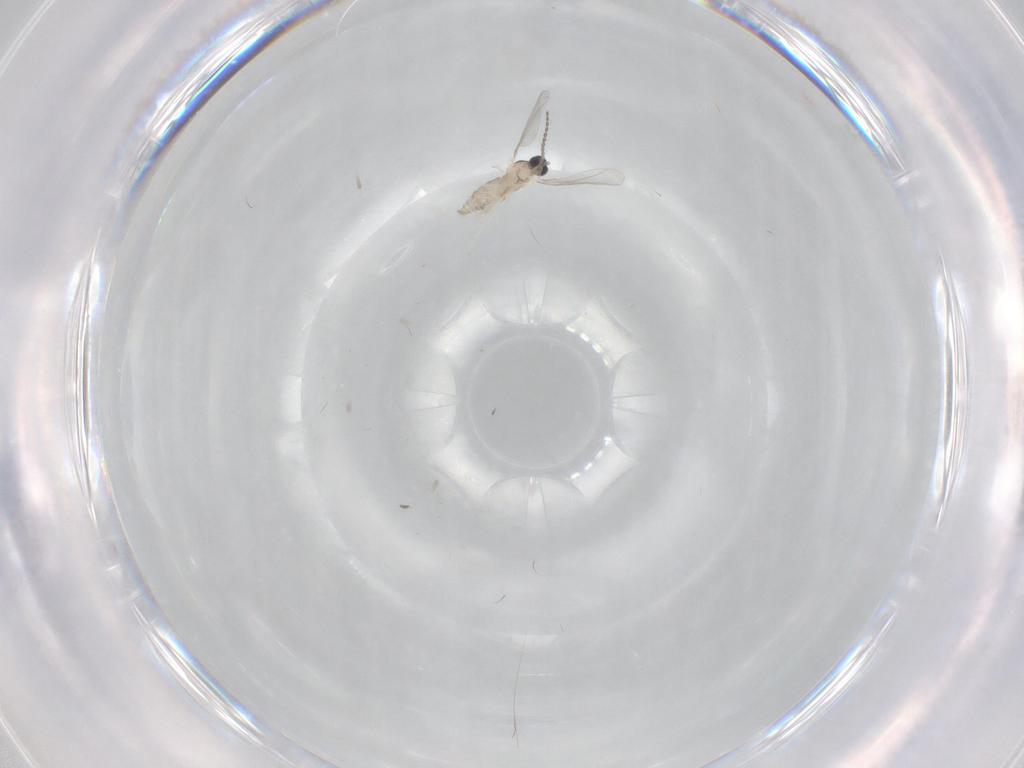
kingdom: Animalia
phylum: Arthropoda
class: Insecta
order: Diptera
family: Cecidomyiidae
